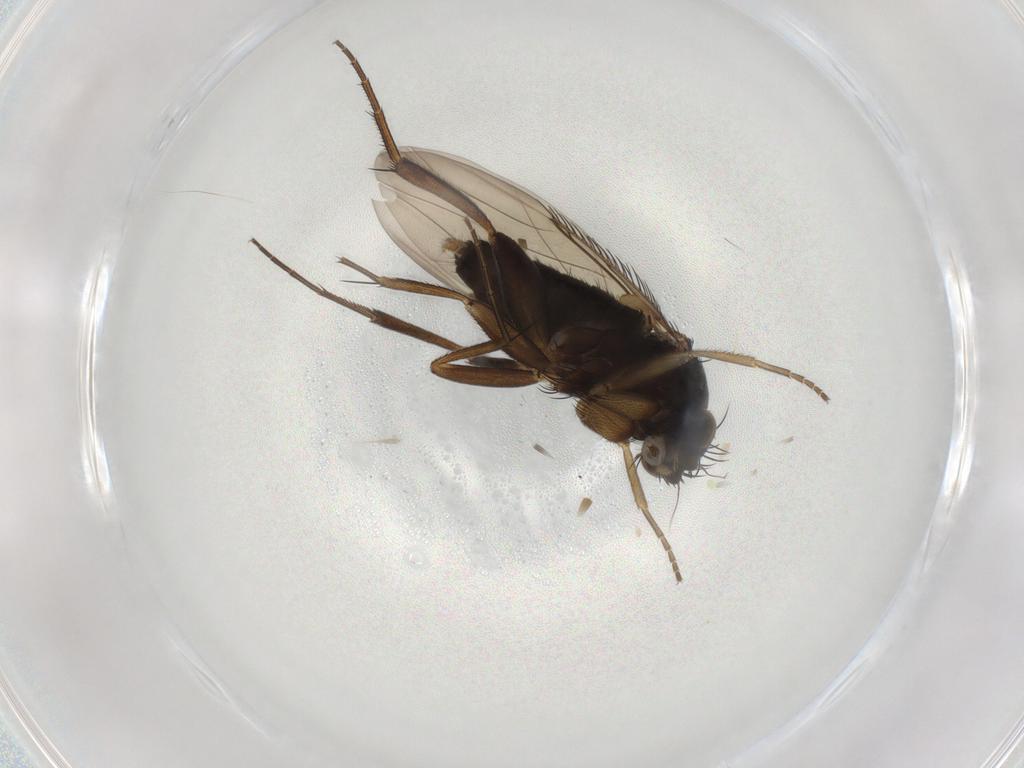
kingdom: Animalia
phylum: Arthropoda
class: Insecta
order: Diptera
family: Phoridae
